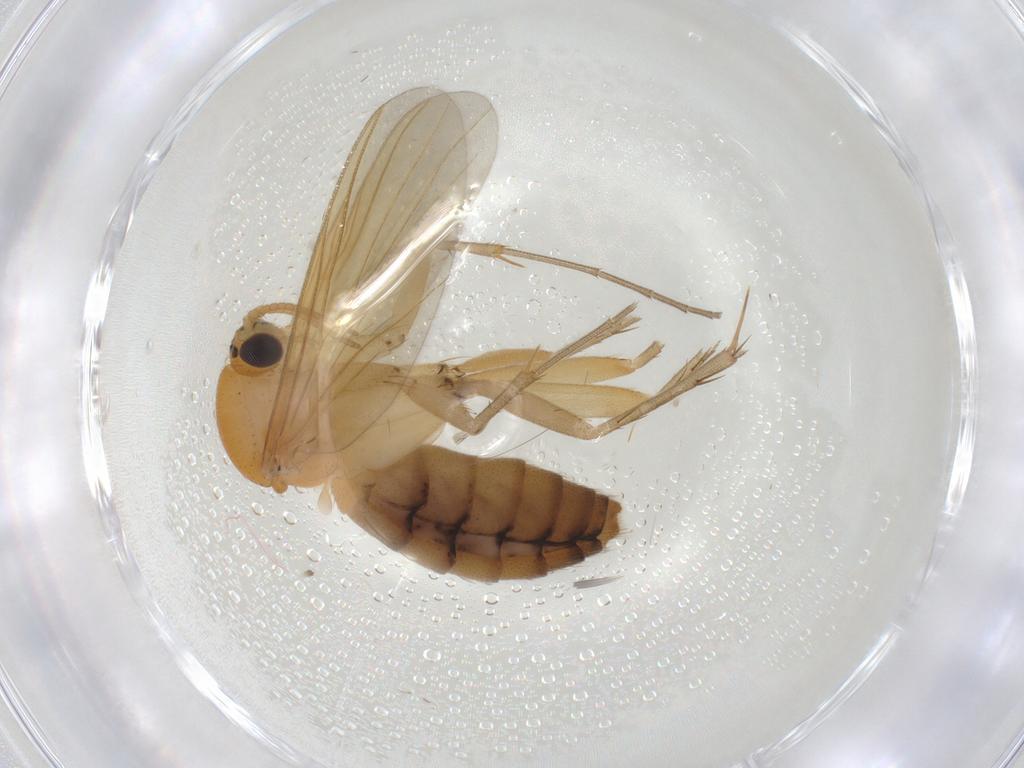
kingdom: Animalia
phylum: Arthropoda
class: Insecta
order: Diptera
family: Mycetophilidae
